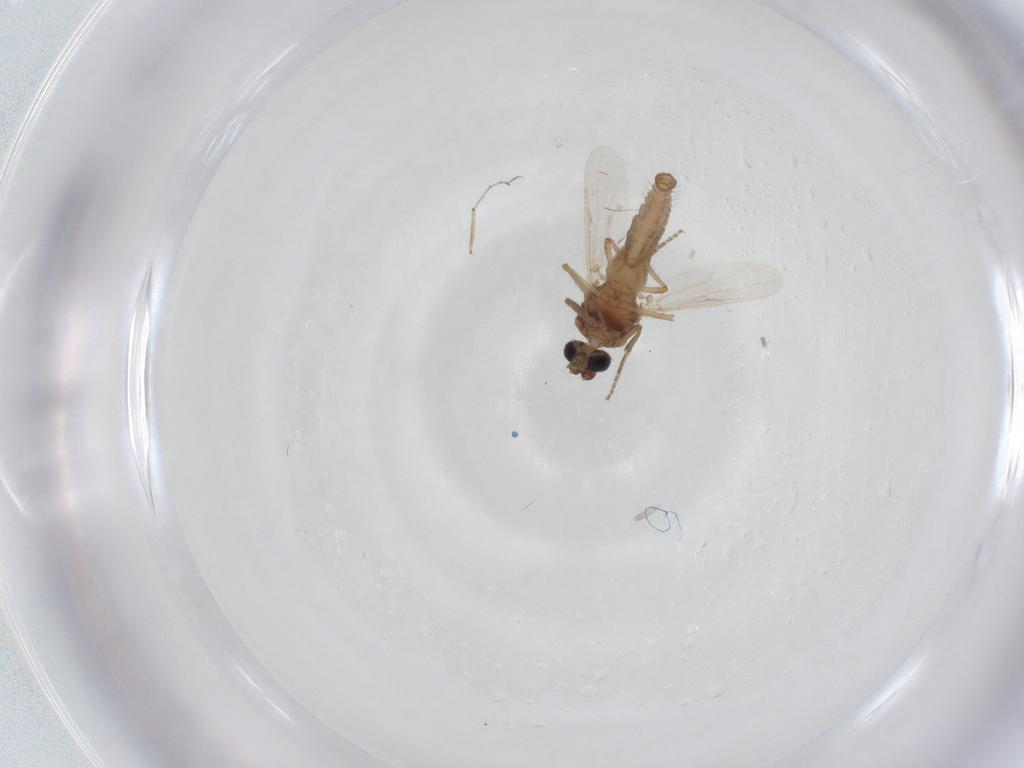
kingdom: Animalia
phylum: Arthropoda
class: Insecta
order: Diptera
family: Ceratopogonidae
